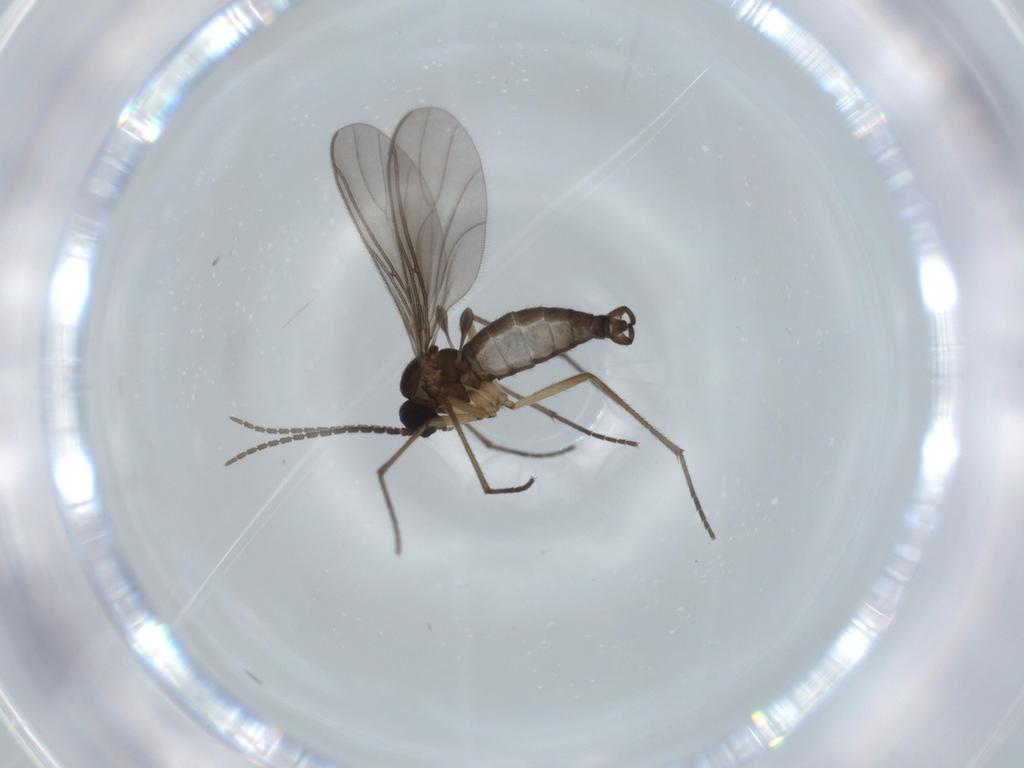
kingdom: Animalia
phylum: Arthropoda
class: Insecta
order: Diptera
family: Sciaridae
